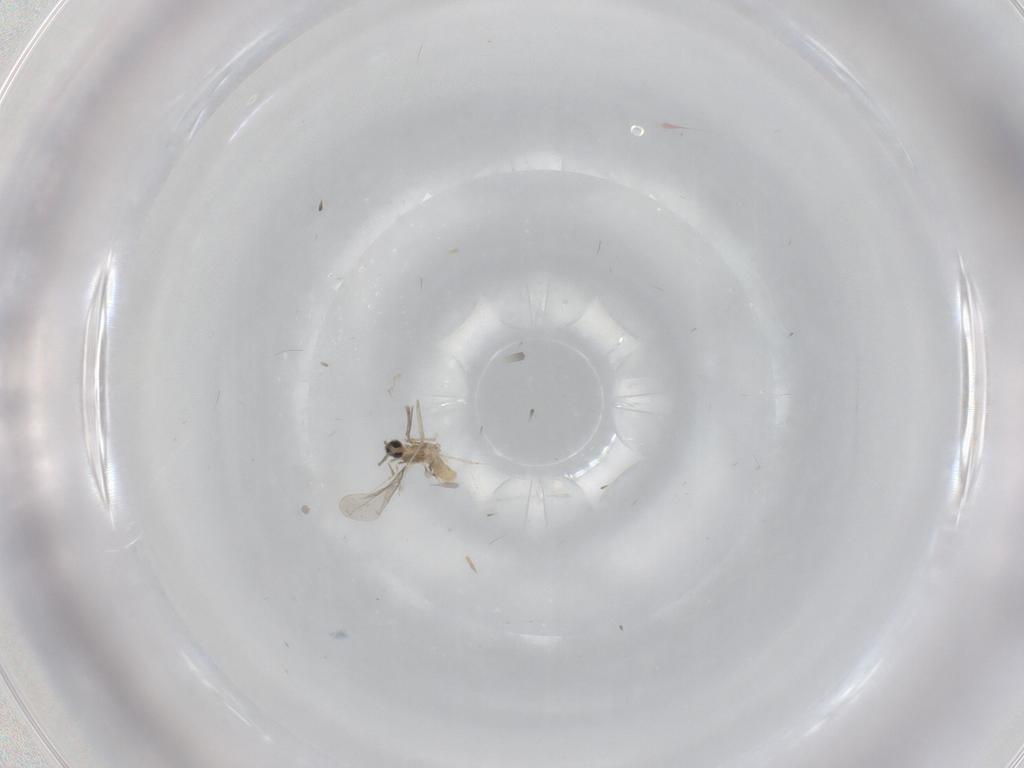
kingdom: Animalia
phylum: Arthropoda
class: Insecta
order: Diptera
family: Cecidomyiidae
